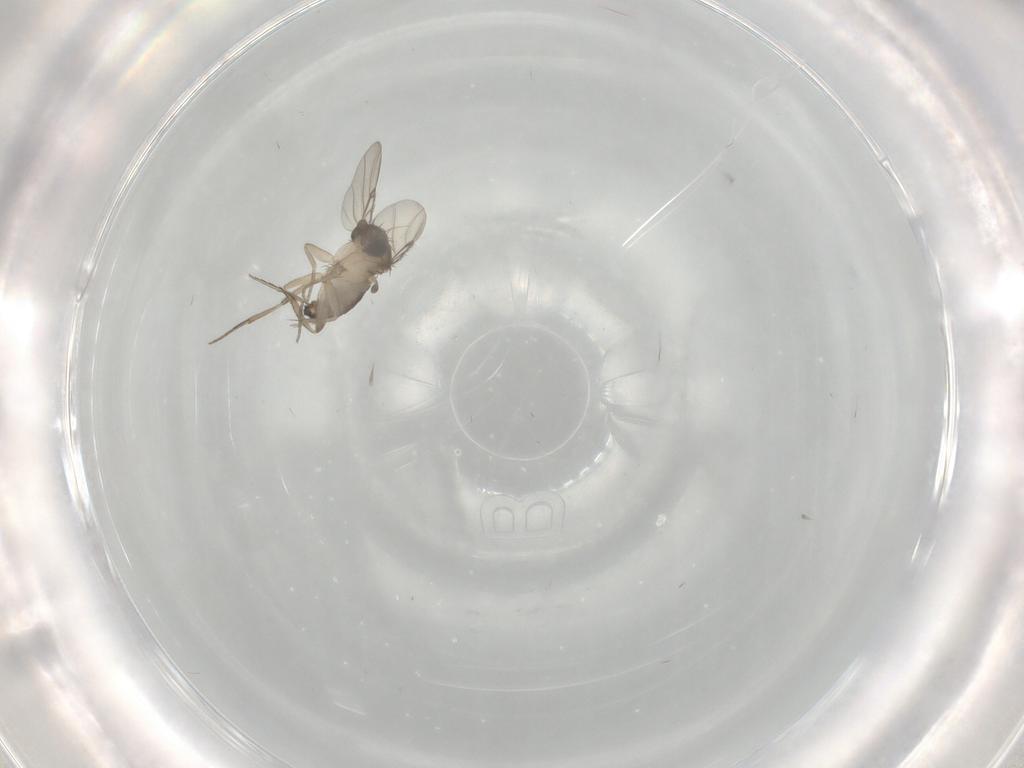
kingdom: Animalia
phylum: Arthropoda
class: Insecta
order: Diptera
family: Phoridae
